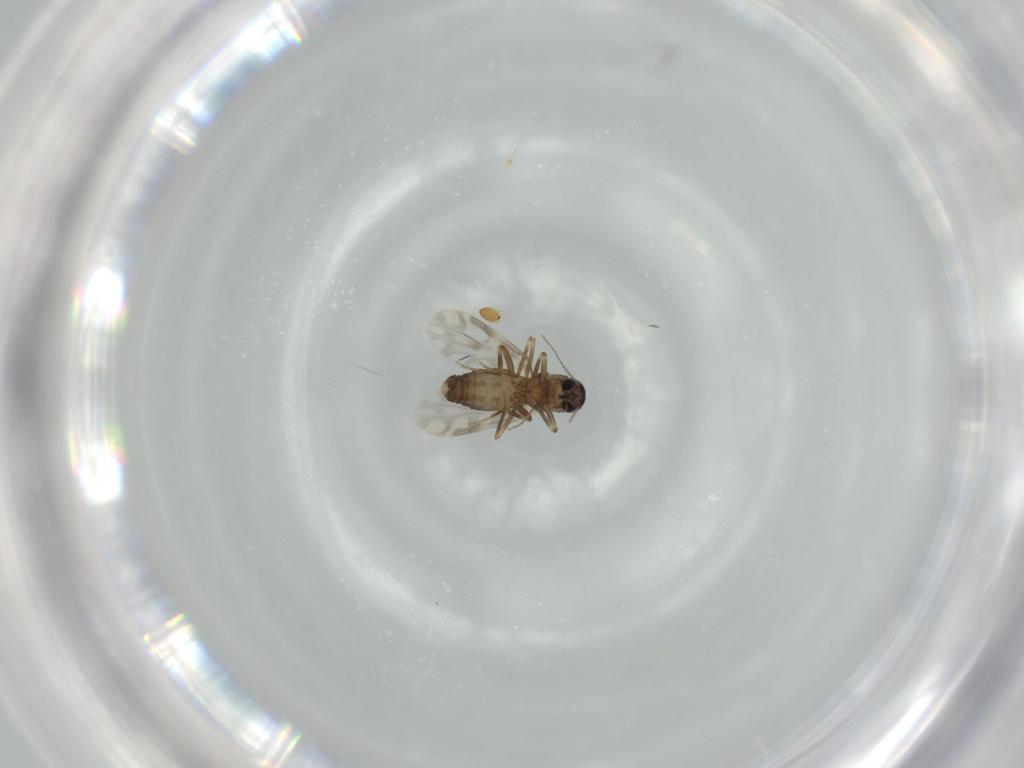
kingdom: Animalia
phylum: Arthropoda
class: Insecta
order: Diptera
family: Ceratopogonidae
